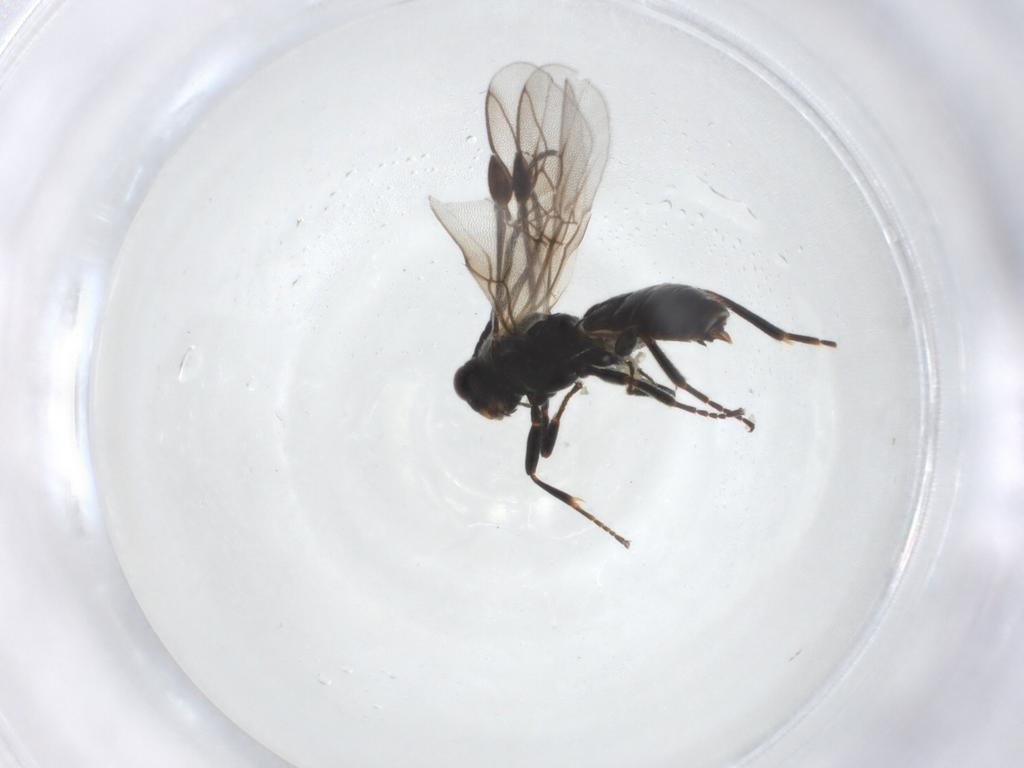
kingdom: Animalia
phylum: Arthropoda
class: Insecta
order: Hymenoptera
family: Braconidae
